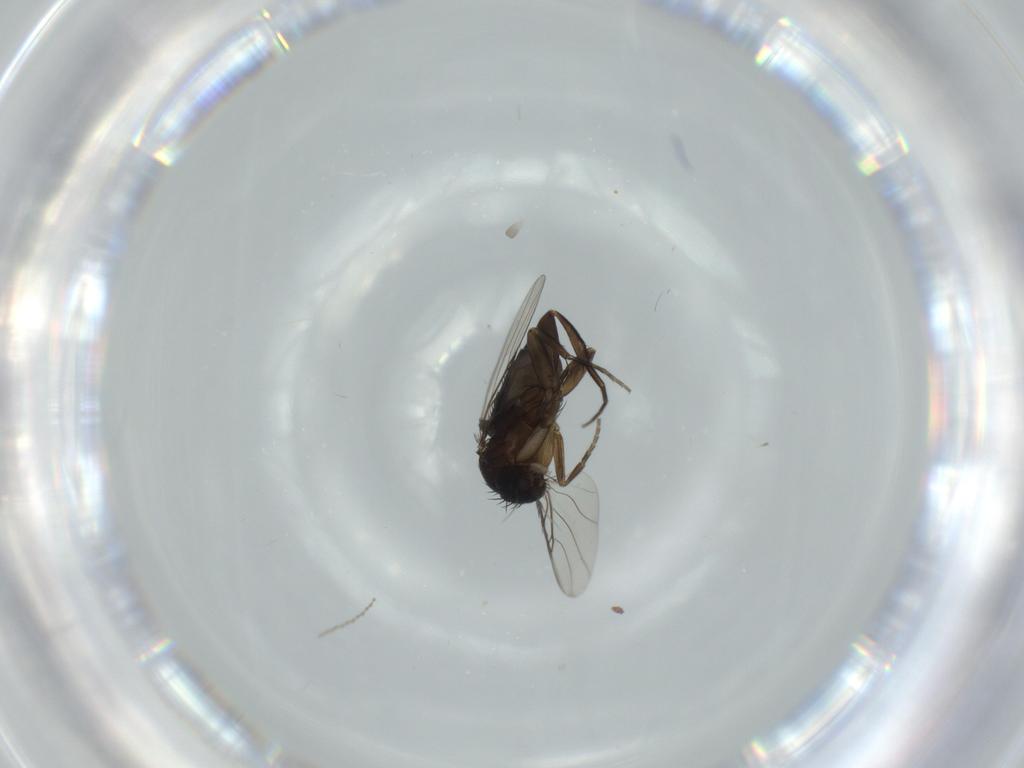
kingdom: Animalia
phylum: Arthropoda
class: Insecta
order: Diptera
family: Phoridae
